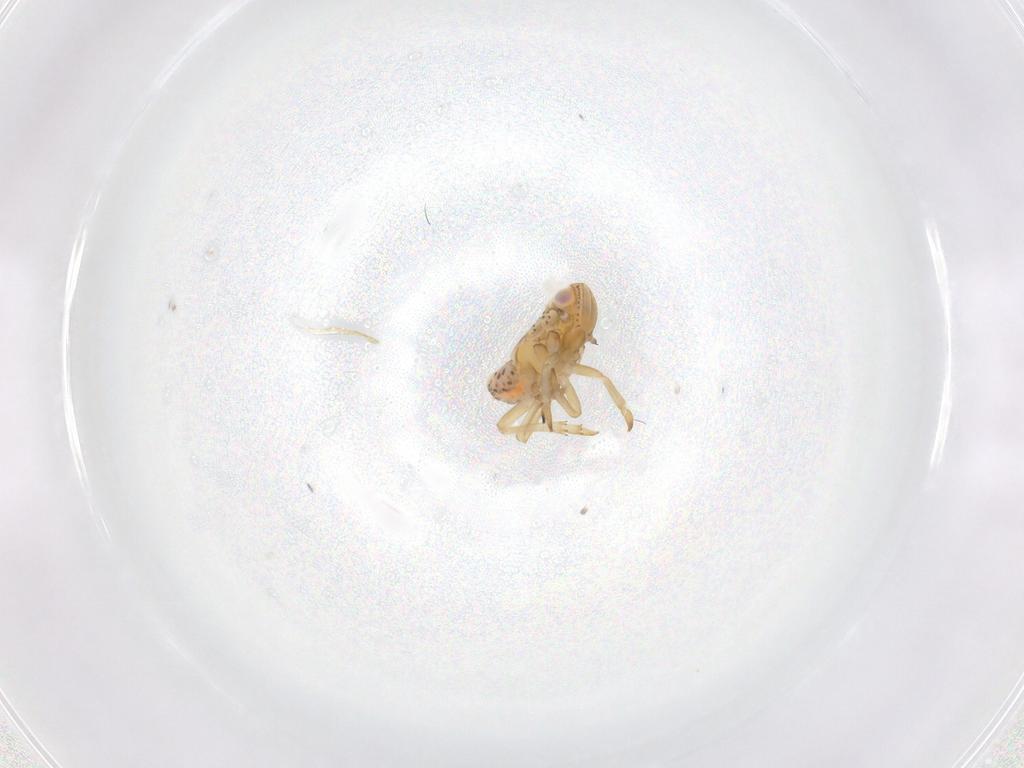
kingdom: Animalia
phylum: Arthropoda
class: Insecta
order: Hemiptera
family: Tropiduchidae
